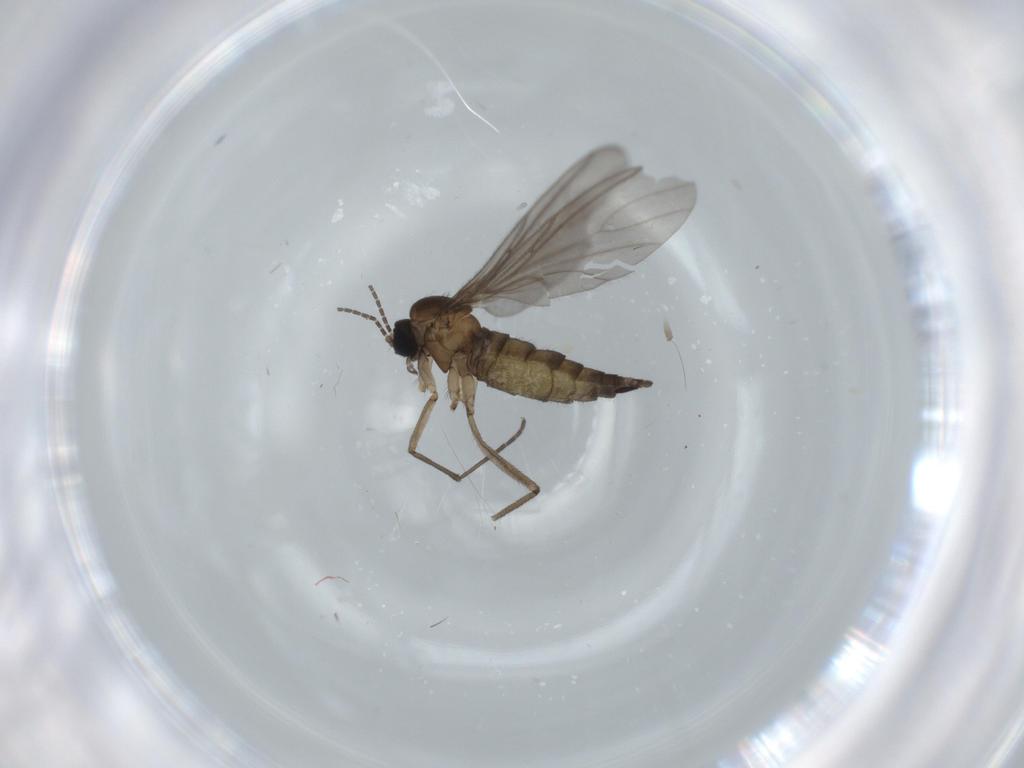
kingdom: Animalia
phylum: Arthropoda
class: Insecta
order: Diptera
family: Sciaridae
